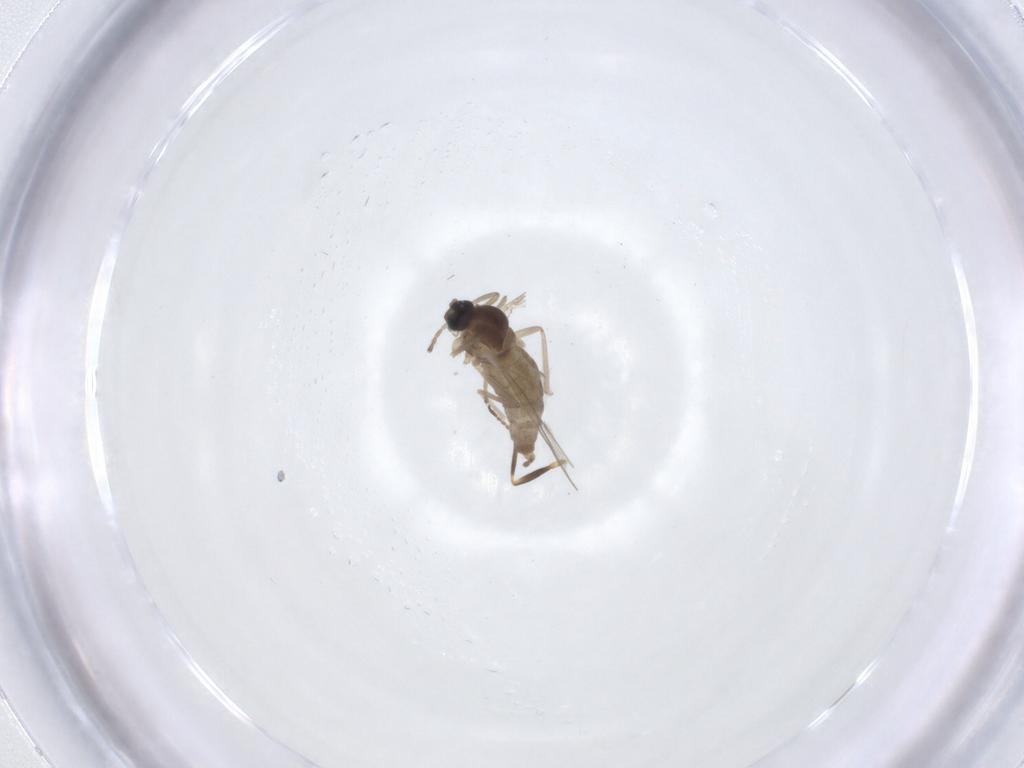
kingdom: Animalia
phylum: Arthropoda
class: Insecta
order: Diptera
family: Cecidomyiidae
